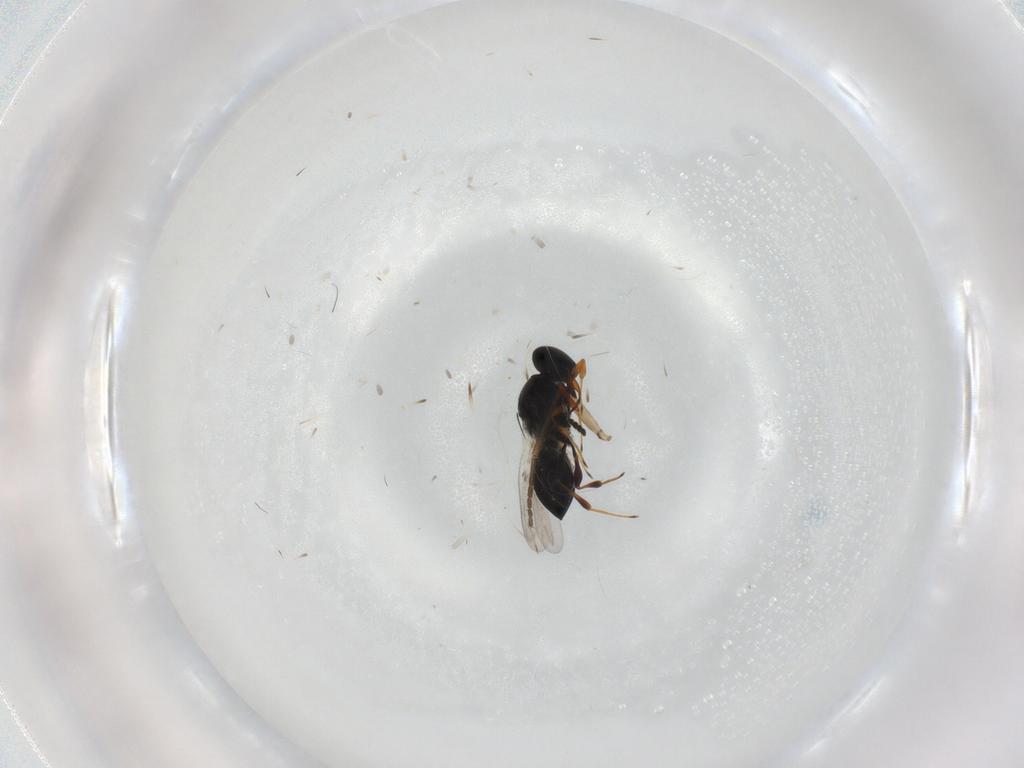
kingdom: Animalia
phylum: Arthropoda
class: Insecta
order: Hymenoptera
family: Platygastridae
